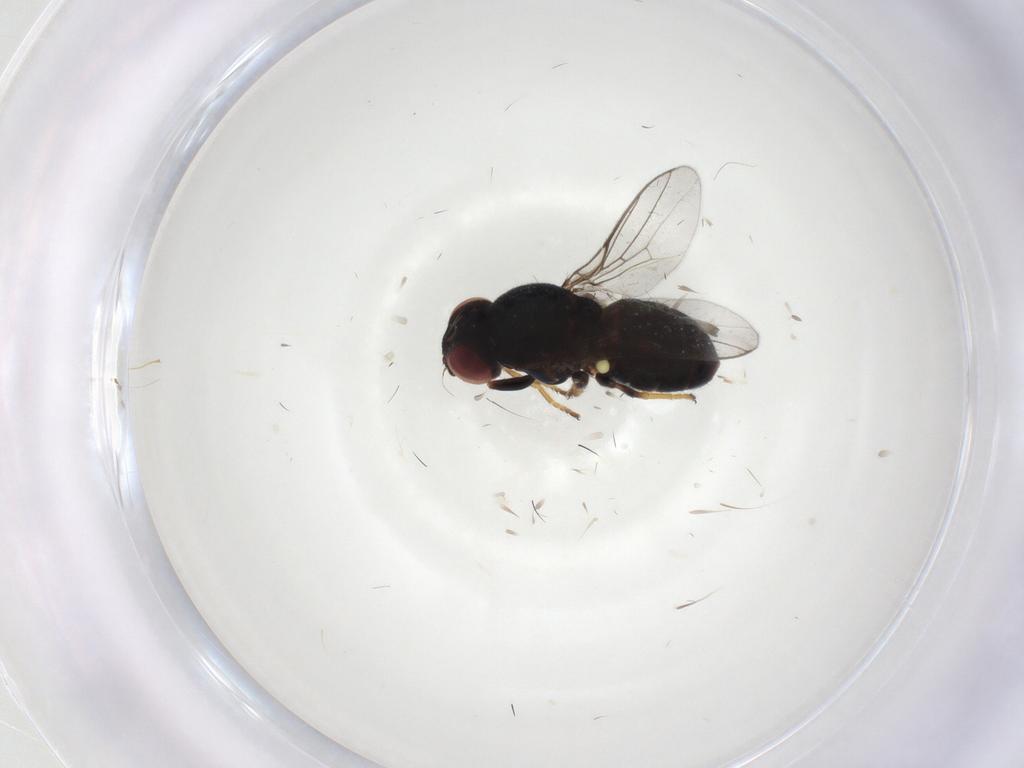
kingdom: Animalia
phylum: Arthropoda
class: Insecta
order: Diptera
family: Chloropidae
